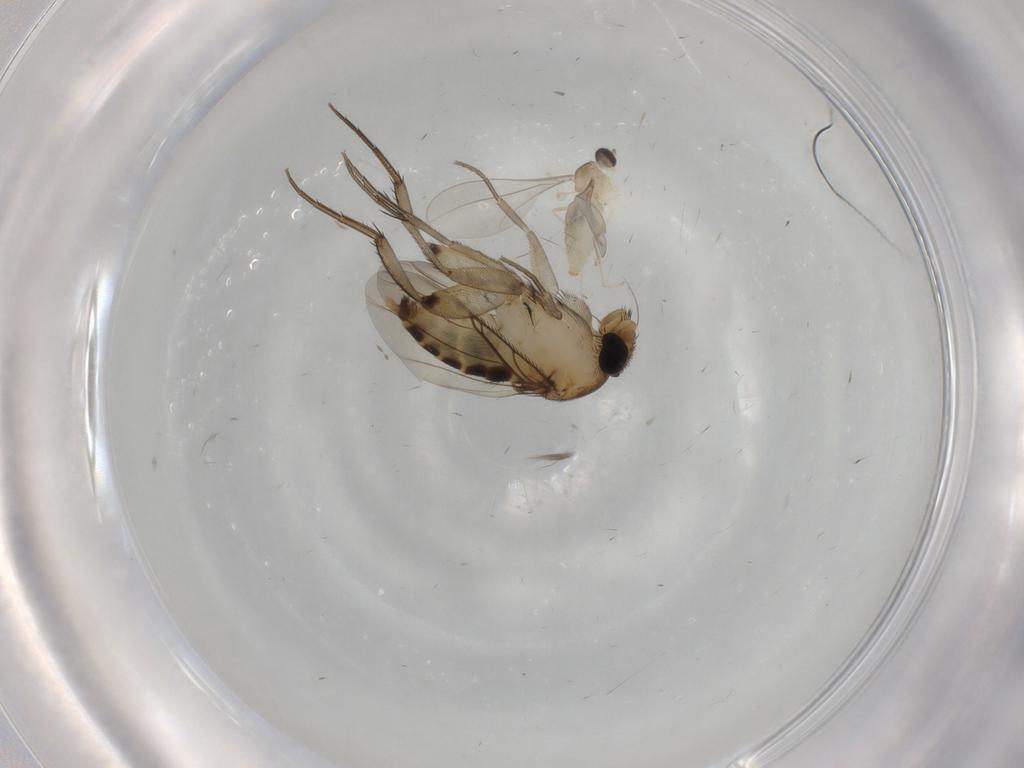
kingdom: Animalia
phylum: Arthropoda
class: Insecta
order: Diptera
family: Phoridae
